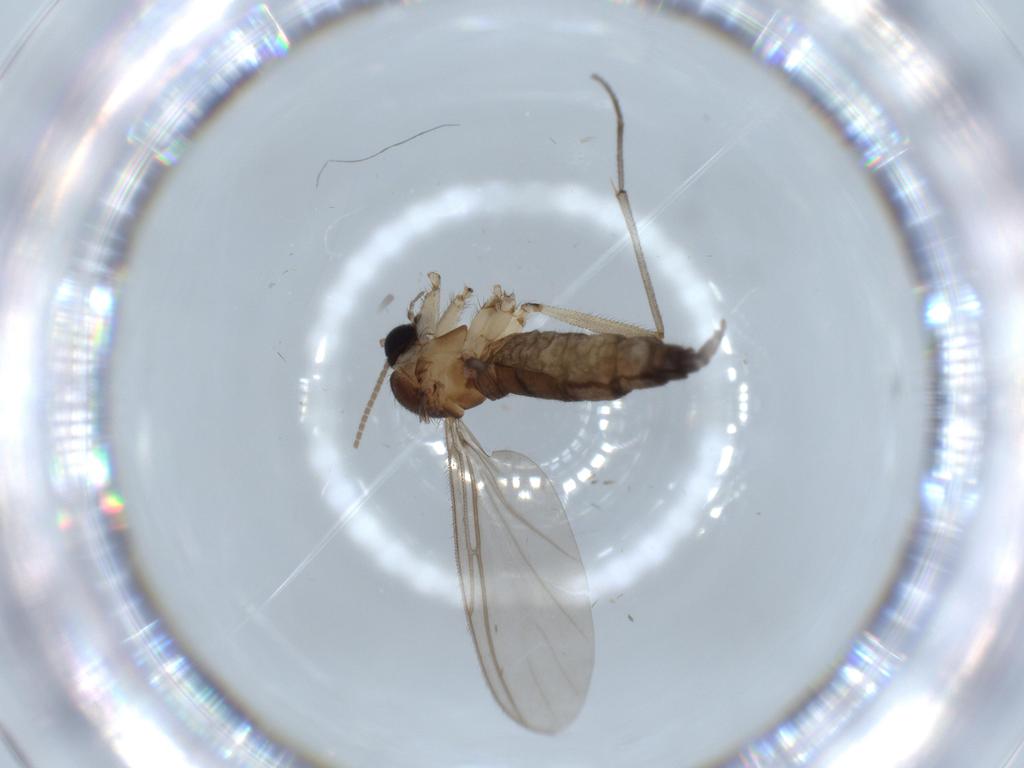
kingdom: Animalia
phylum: Arthropoda
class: Insecta
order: Diptera
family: Sciaridae
